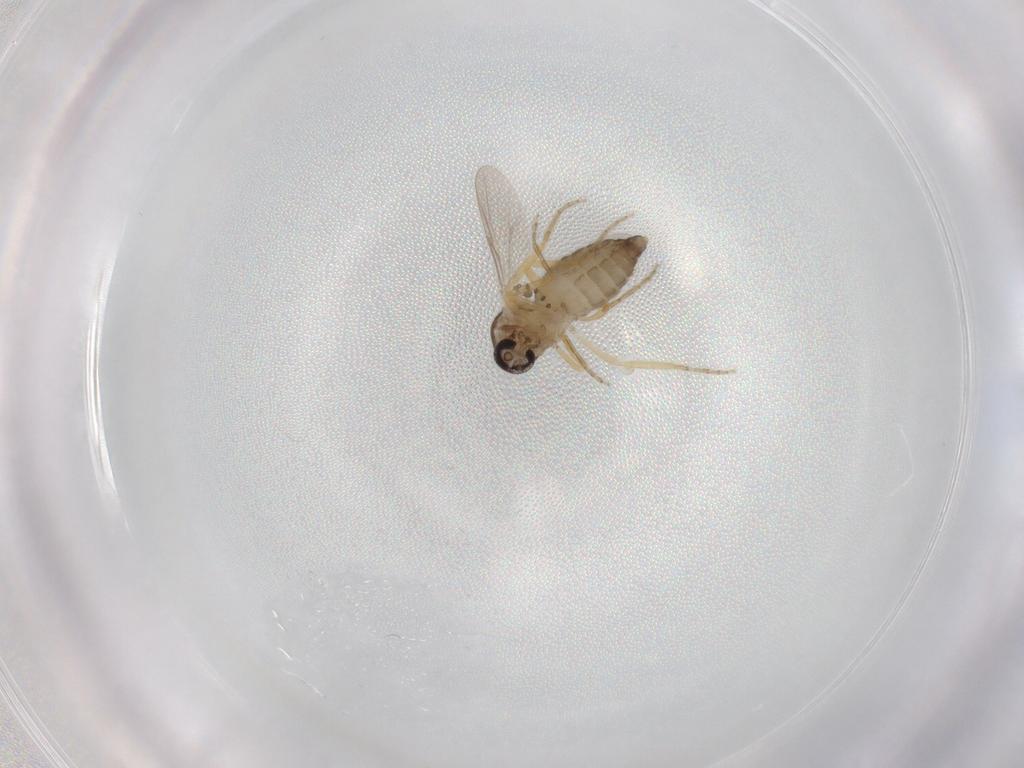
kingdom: Animalia
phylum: Arthropoda
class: Insecta
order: Diptera
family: Ceratopogonidae
